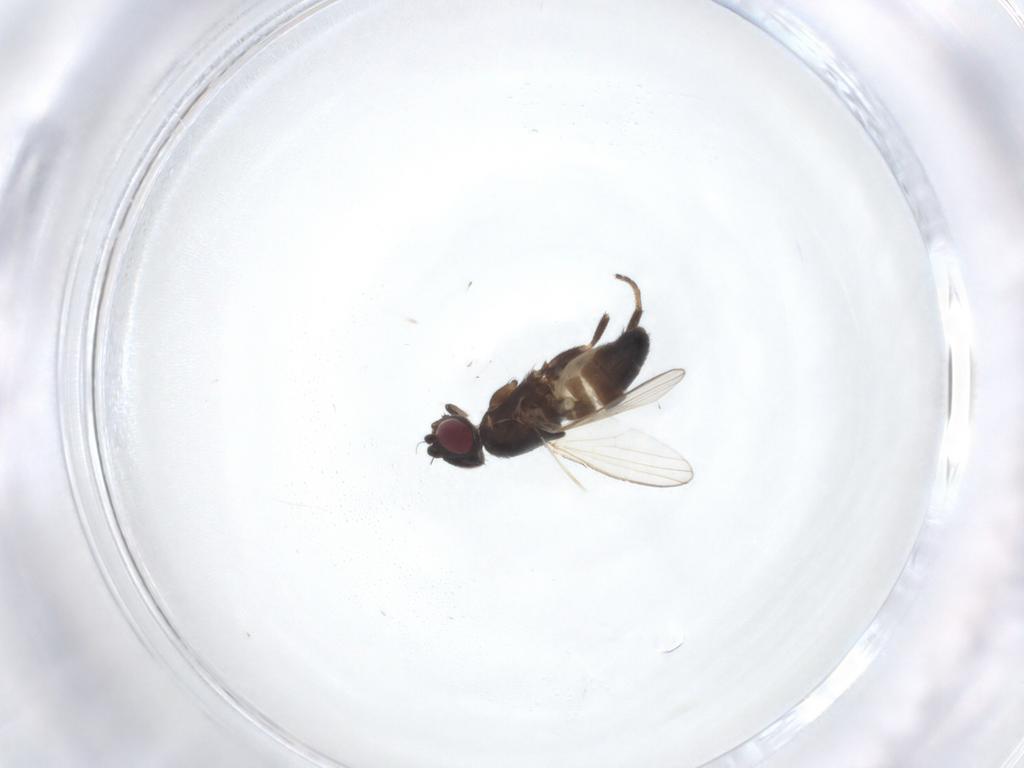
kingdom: Animalia
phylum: Arthropoda
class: Insecta
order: Diptera
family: Milichiidae
